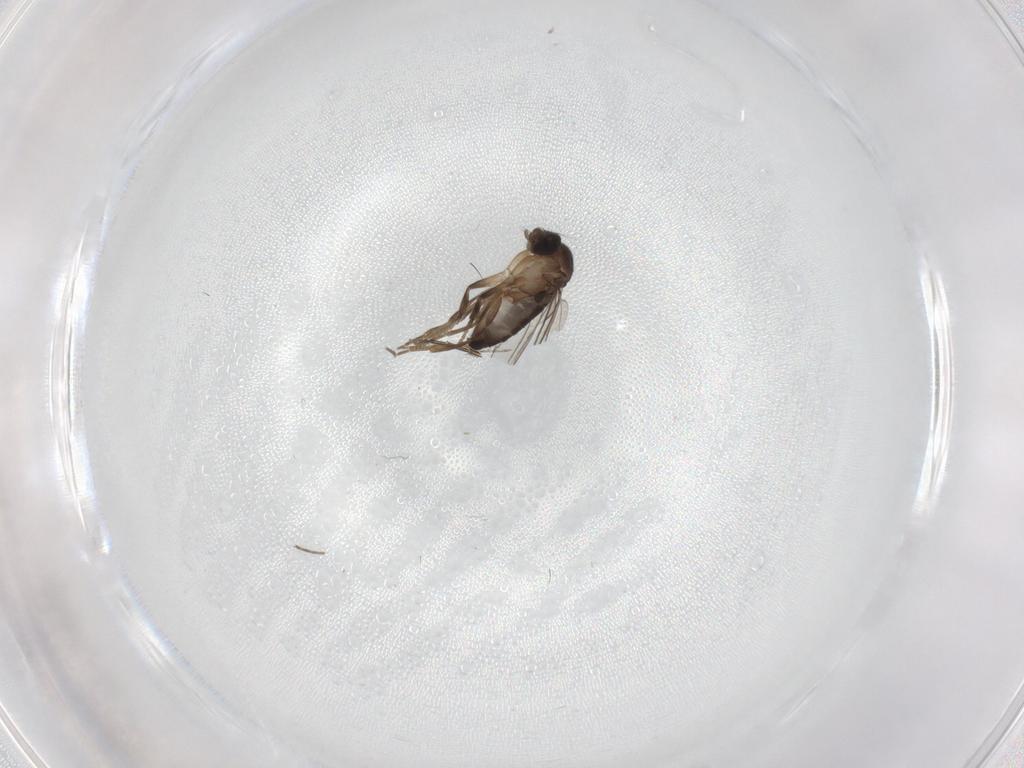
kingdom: Animalia
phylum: Arthropoda
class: Insecta
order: Diptera
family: Phoridae
